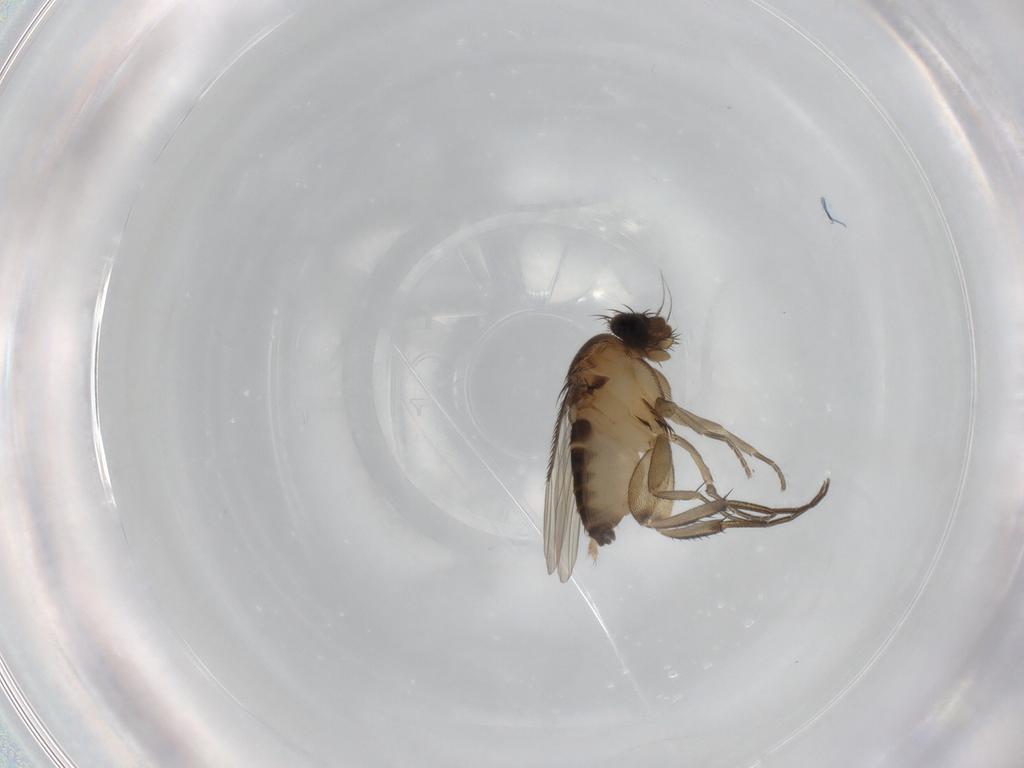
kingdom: Animalia
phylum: Arthropoda
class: Insecta
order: Diptera
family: Phoridae
